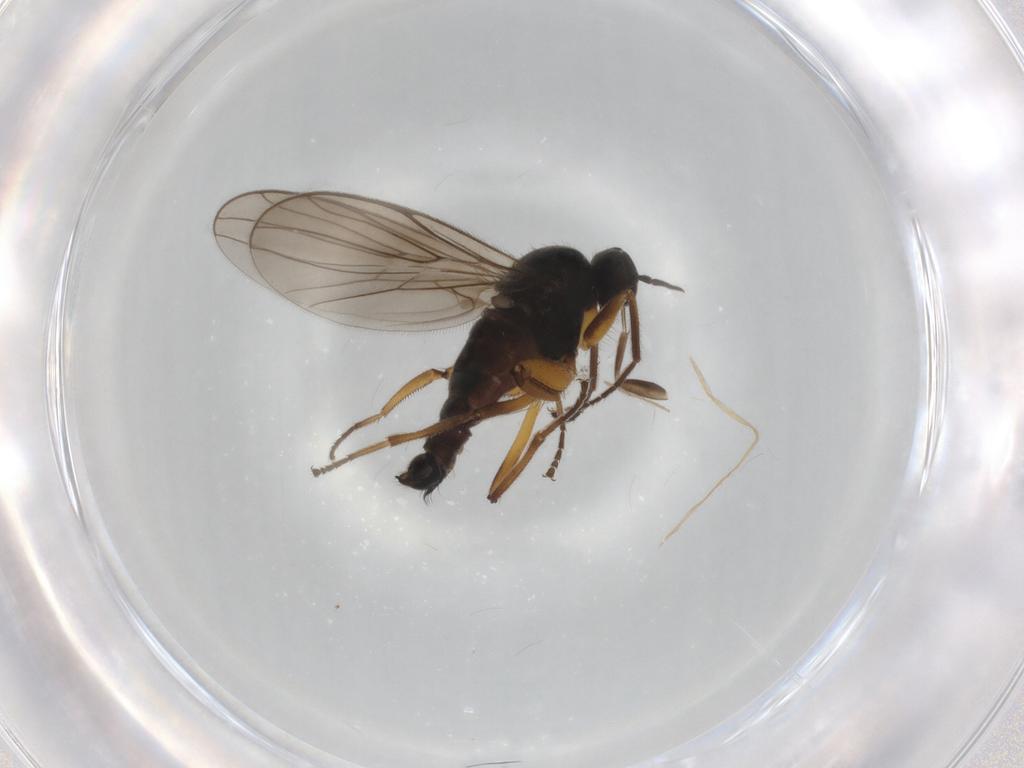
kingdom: Animalia
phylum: Arthropoda
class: Insecta
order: Diptera
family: Hybotidae
